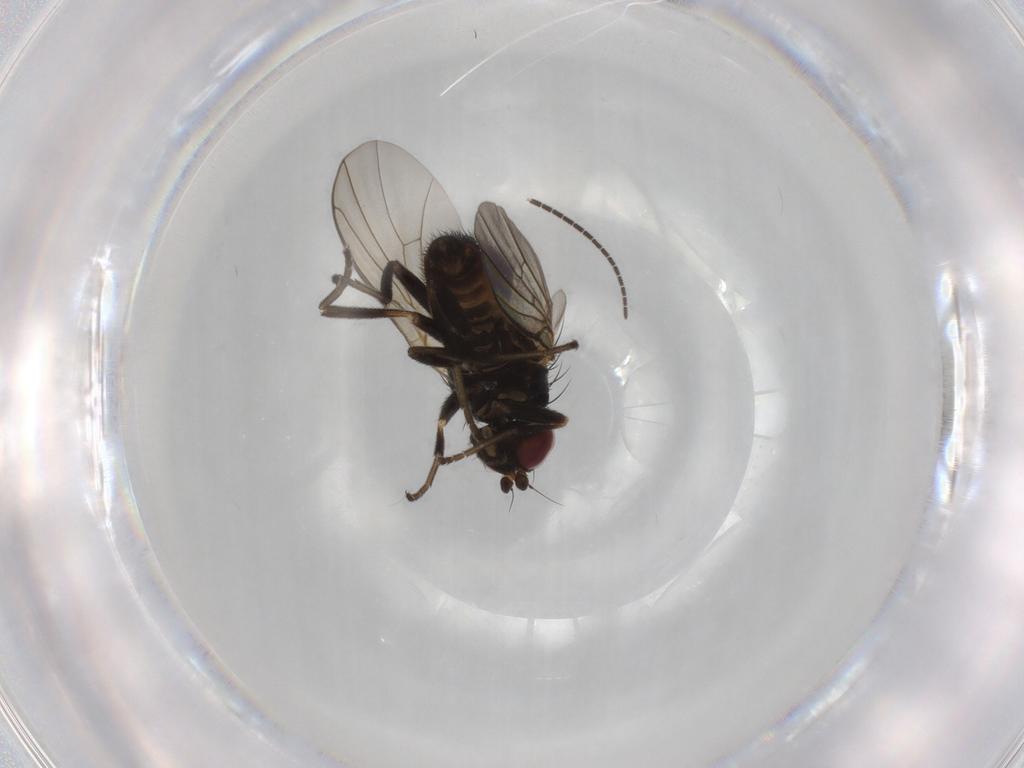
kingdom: Animalia
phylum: Arthropoda
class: Insecta
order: Diptera
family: Agromyzidae
